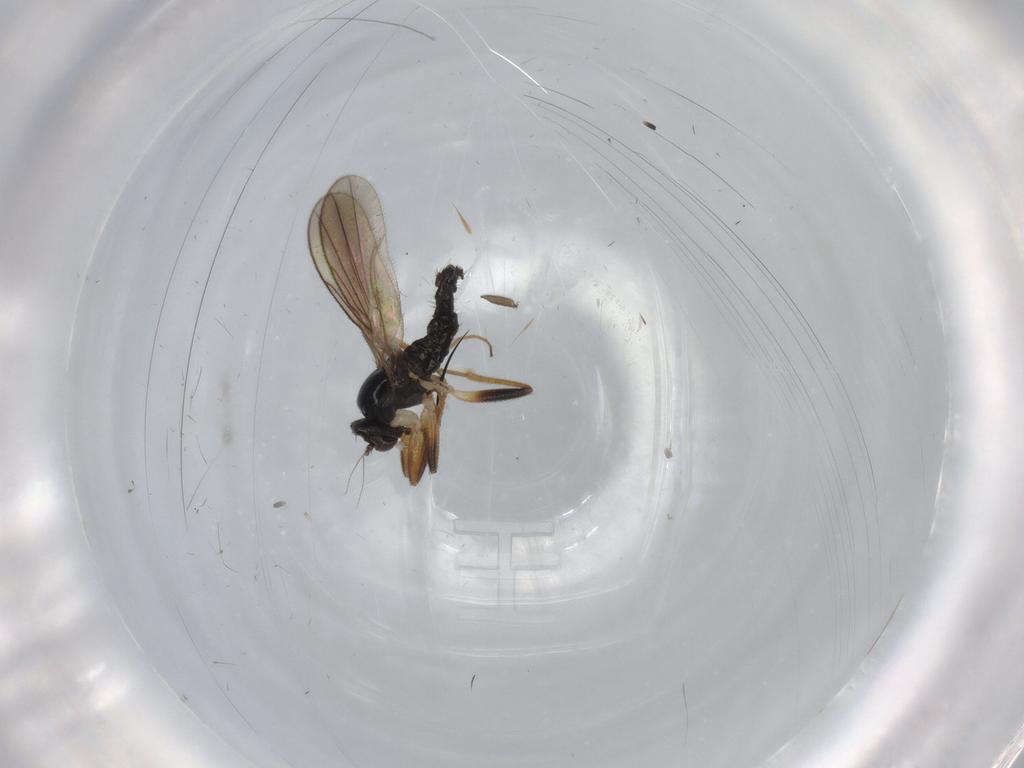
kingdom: Animalia
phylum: Arthropoda
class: Insecta
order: Diptera
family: Hybotidae
